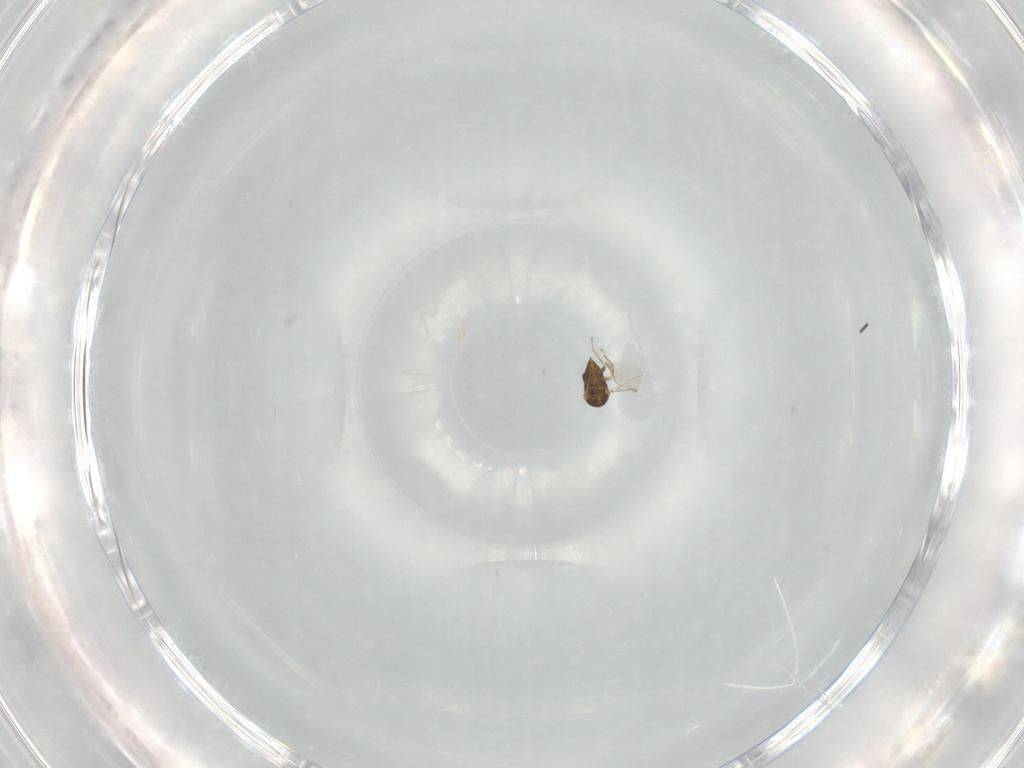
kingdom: Animalia
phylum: Arthropoda
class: Insecta
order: Hymenoptera
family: Encyrtidae
